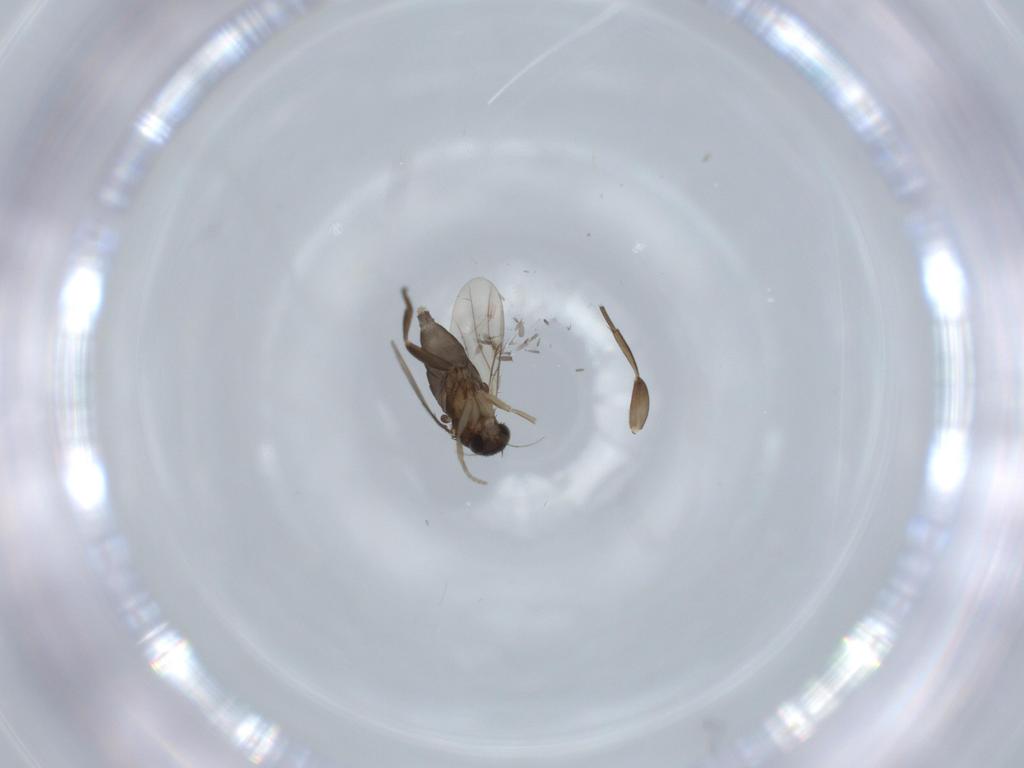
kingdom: Animalia
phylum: Arthropoda
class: Insecta
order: Diptera
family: Phoridae
